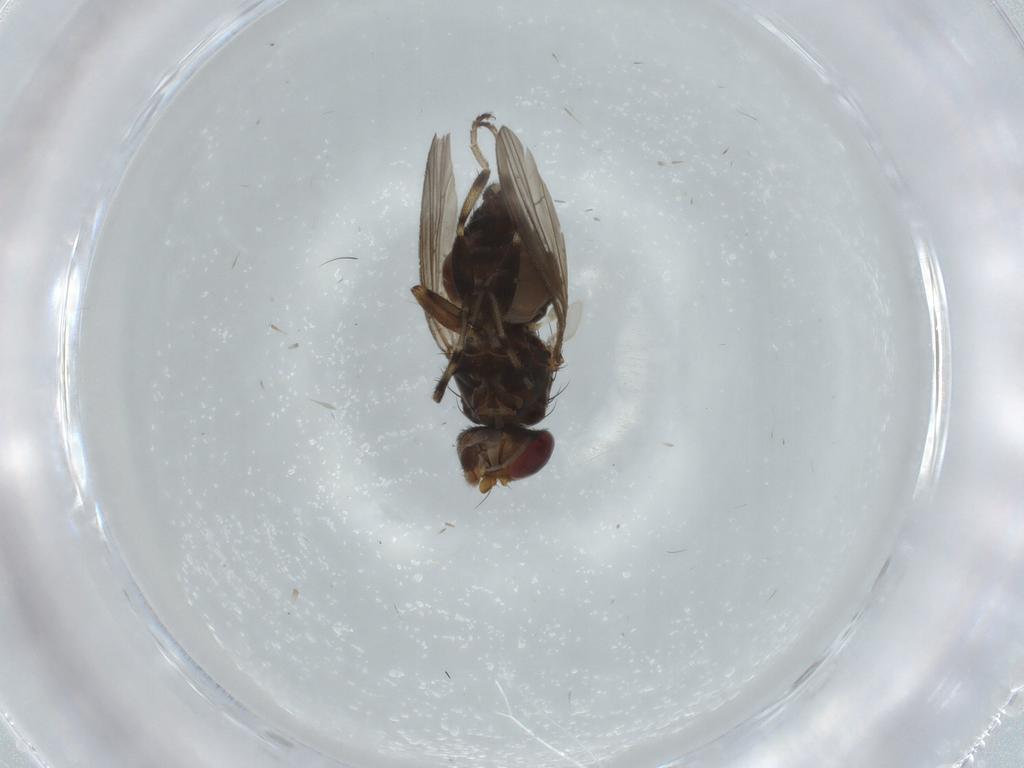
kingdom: Animalia
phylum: Arthropoda
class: Insecta
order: Diptera
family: Heleomyzidae
